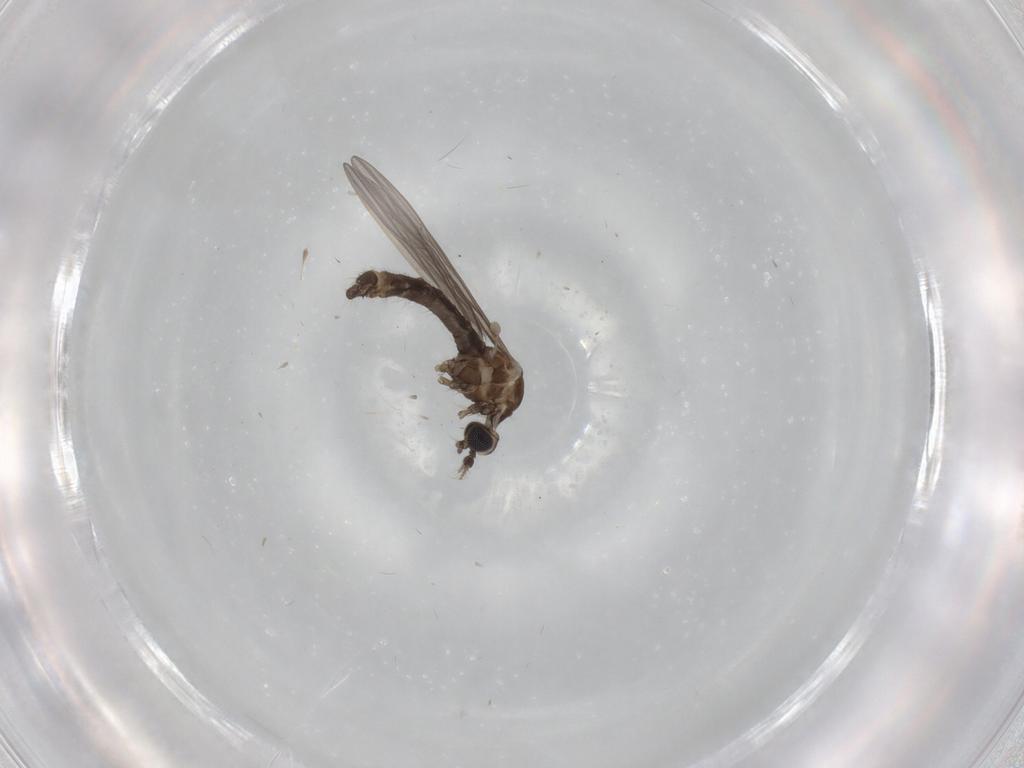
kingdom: Animalia
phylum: Arthropoda
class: Insecta
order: Diptera
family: Limoniidae
